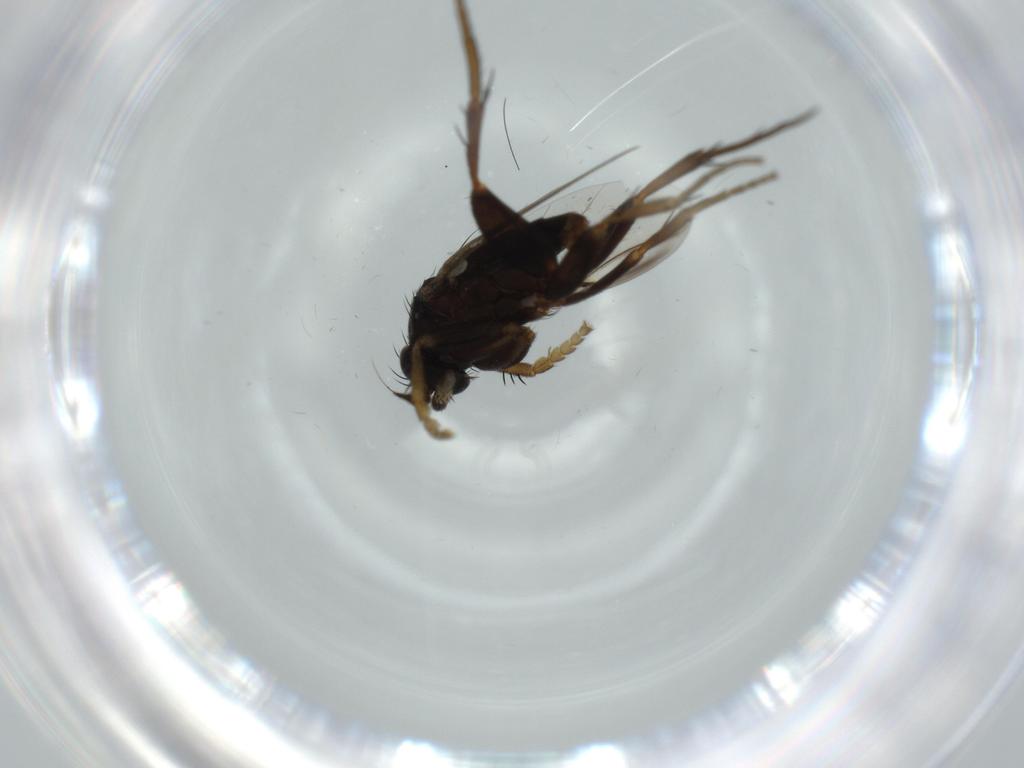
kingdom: Animalia
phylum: Arthropoda
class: Insecta
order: Diptera
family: Phoridae
